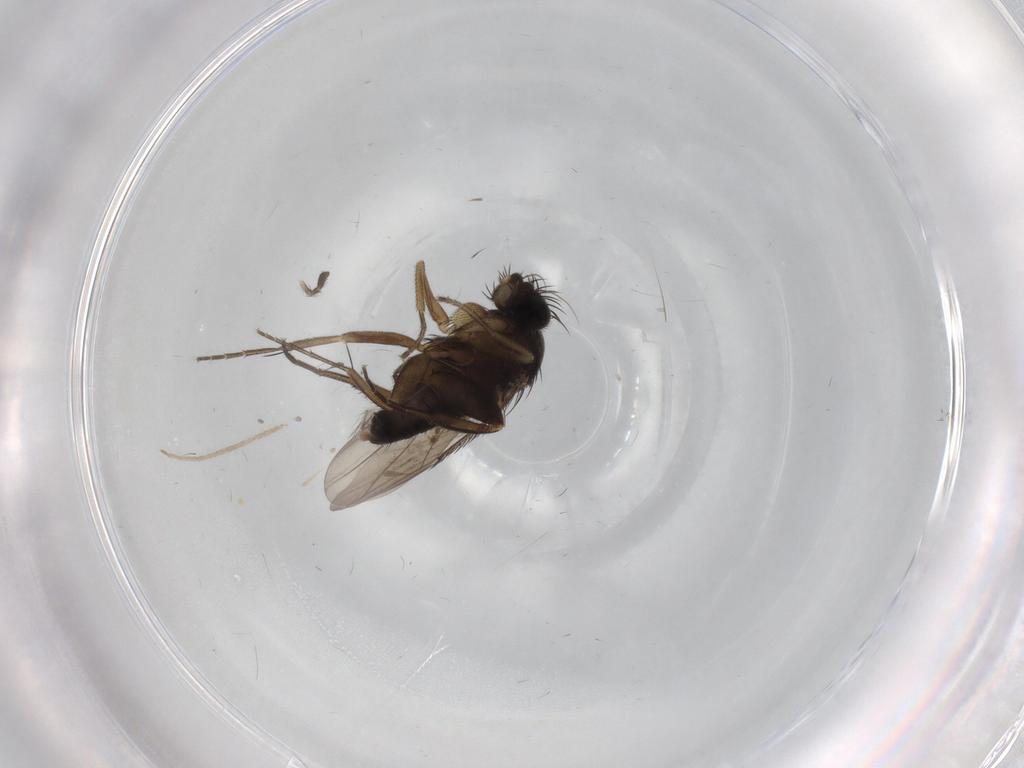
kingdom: Animalia
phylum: Arthropoda
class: Insecta
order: Diptera
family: Phoridae
